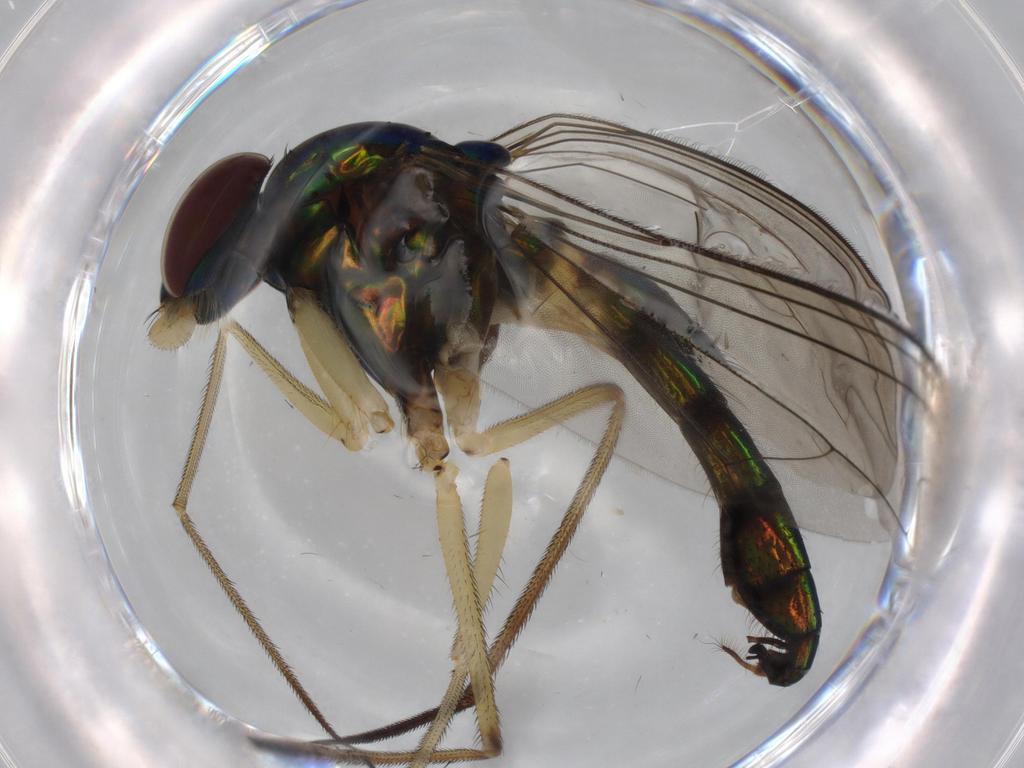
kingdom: Animalia
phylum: Arthropoda
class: Insecta
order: Diptera
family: Dolichopodidae
